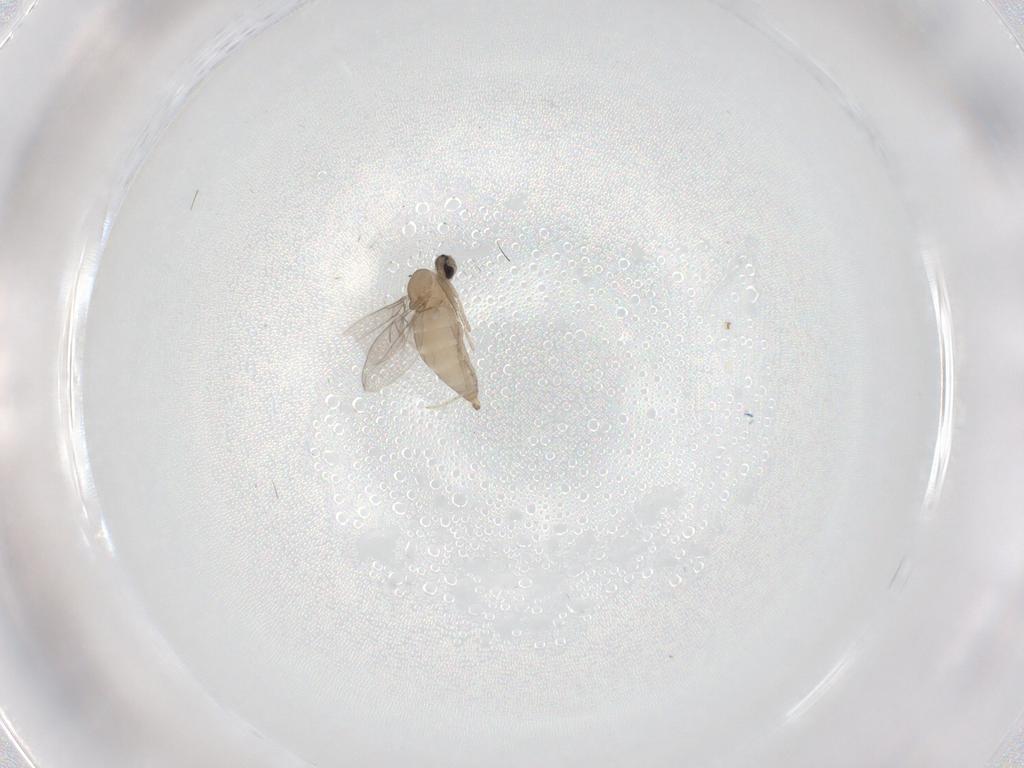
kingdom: Animalia
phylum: Arthropoda
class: Insecta
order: Diptera
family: Cecidomyiidae
